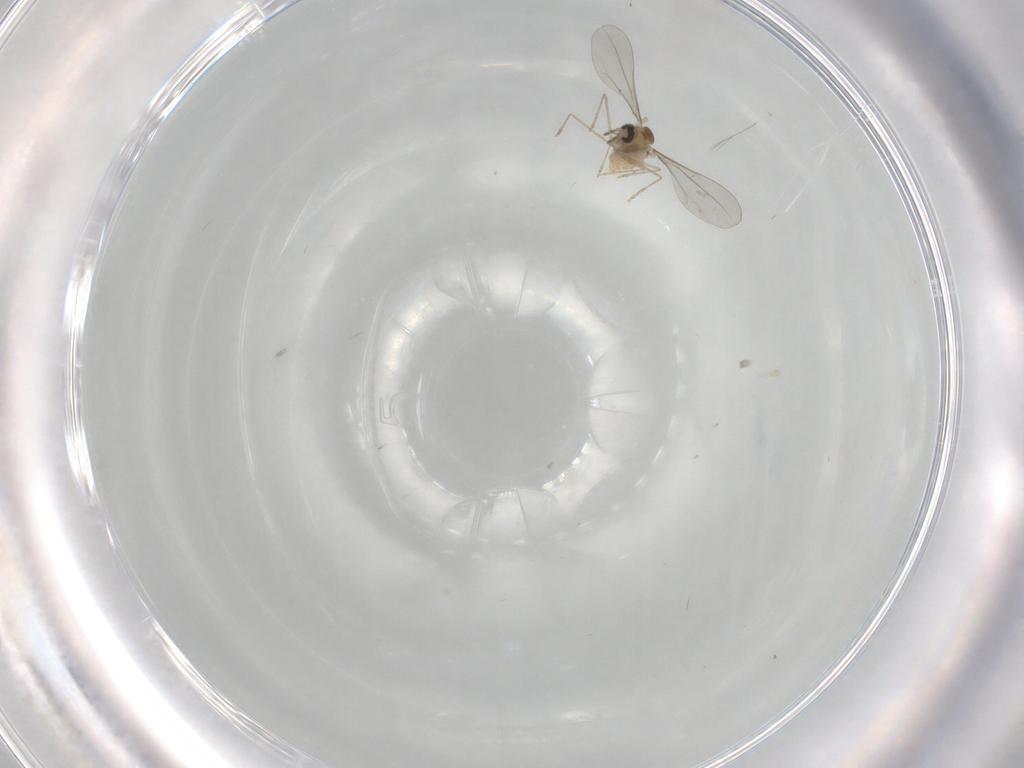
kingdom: Animalia
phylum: Arthropoda
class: Insecta
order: Diptera
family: Cecidomyiidae
